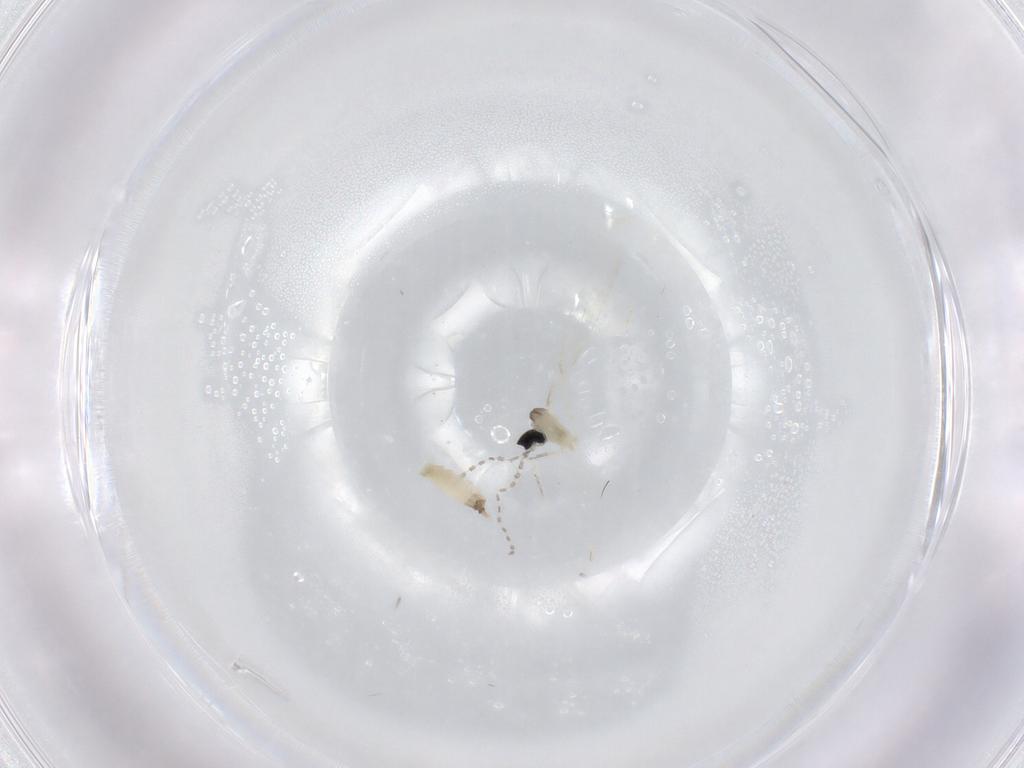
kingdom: Animalia
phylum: Arthropoda
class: Insecta
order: Diptera
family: Cecidomyiidae
